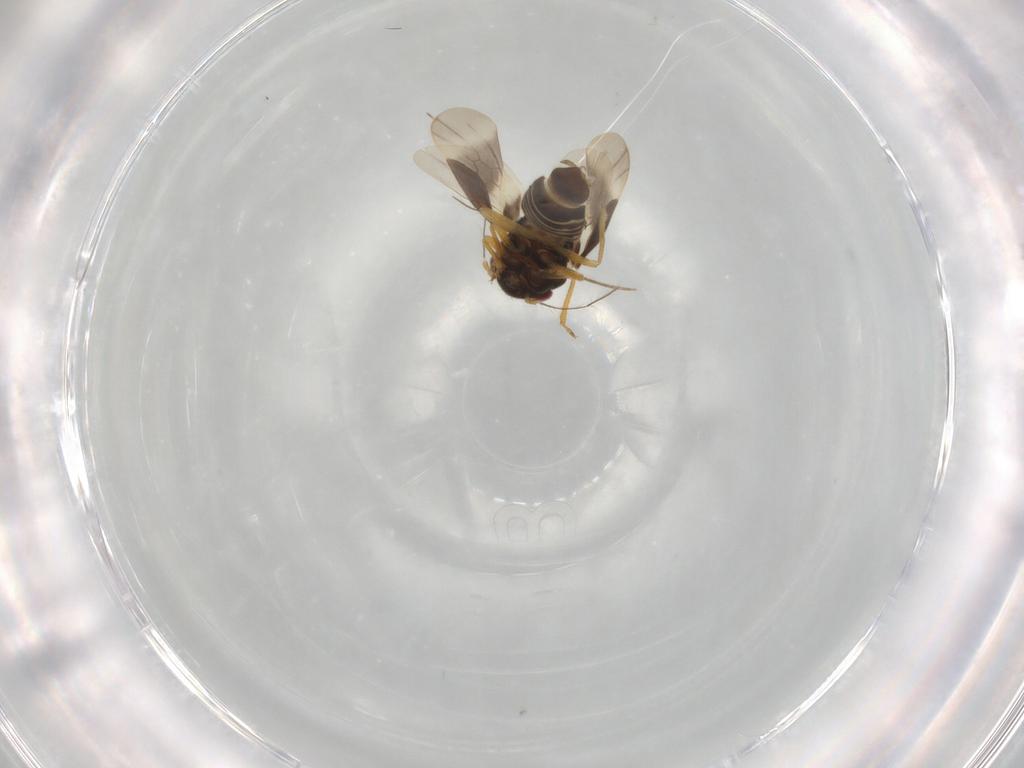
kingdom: Animalia
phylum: Arthropoda
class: Insecta
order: Hemiptera
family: Schizopteridae
